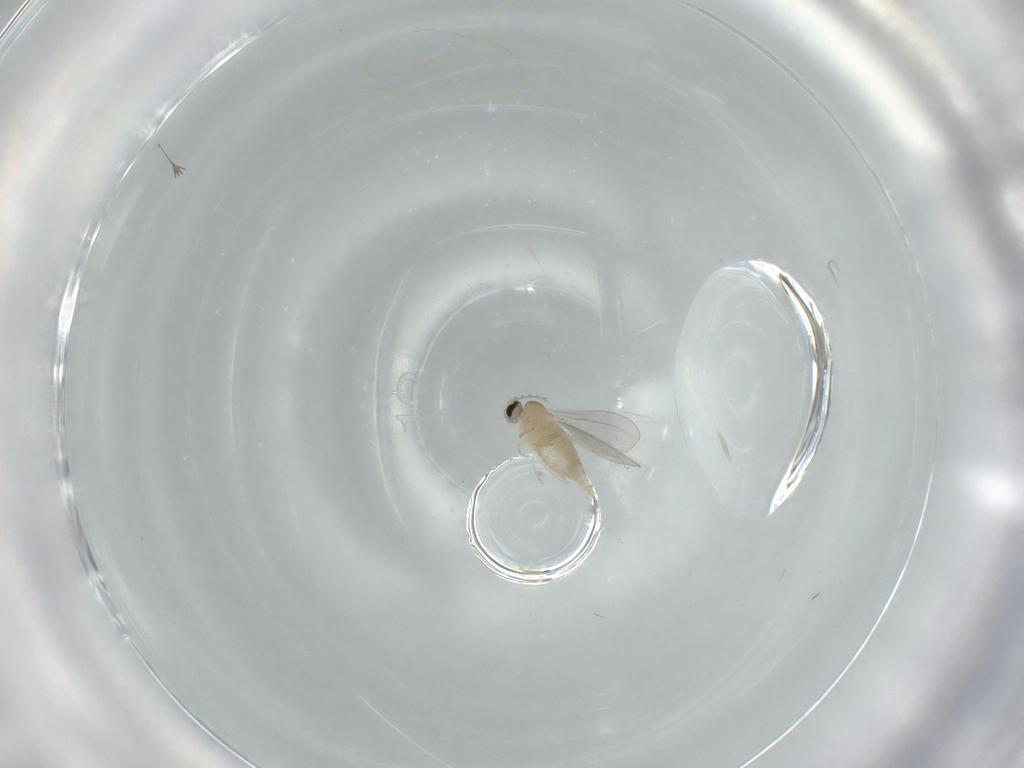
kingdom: Animalia
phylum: Arthropoda
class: Insecta
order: Diptera
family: Cecidomyiidae
